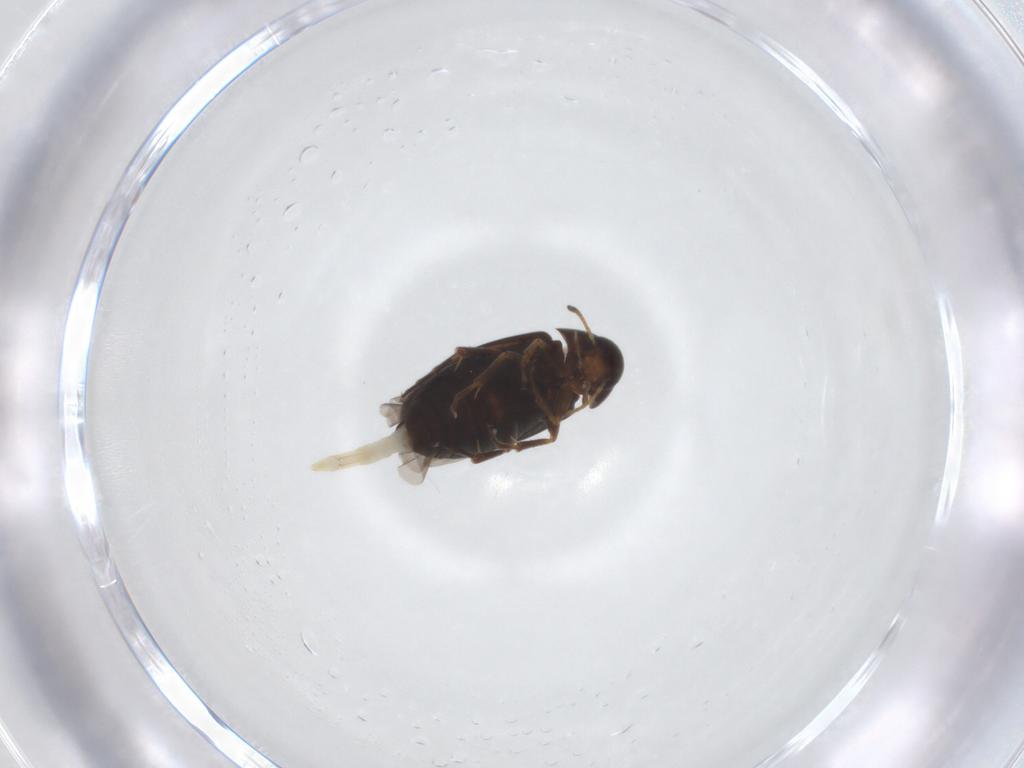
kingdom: Animalia
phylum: Arthropoda
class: Insecta
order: Coleoptera
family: Scraptiidae
